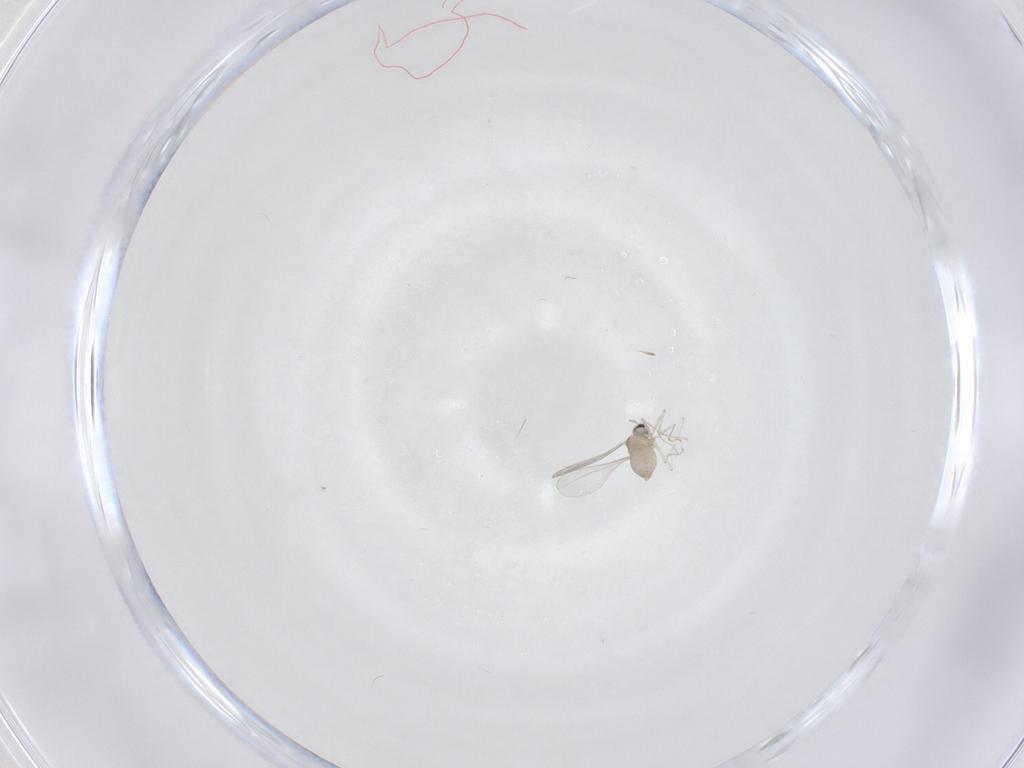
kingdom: Animalia
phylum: Arthropoda
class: Insecta
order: Diptera
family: Cecidomyiidae
